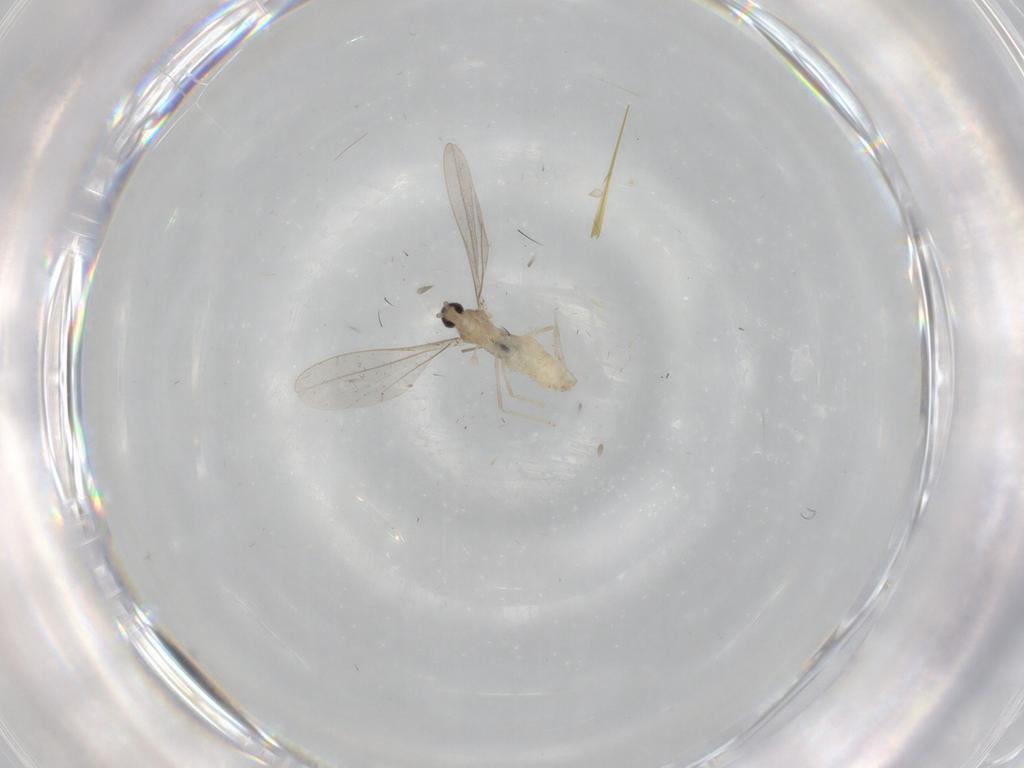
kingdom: Animalia
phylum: Arthropoda
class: Insecta
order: Diptera
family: Cecidomyiidae
